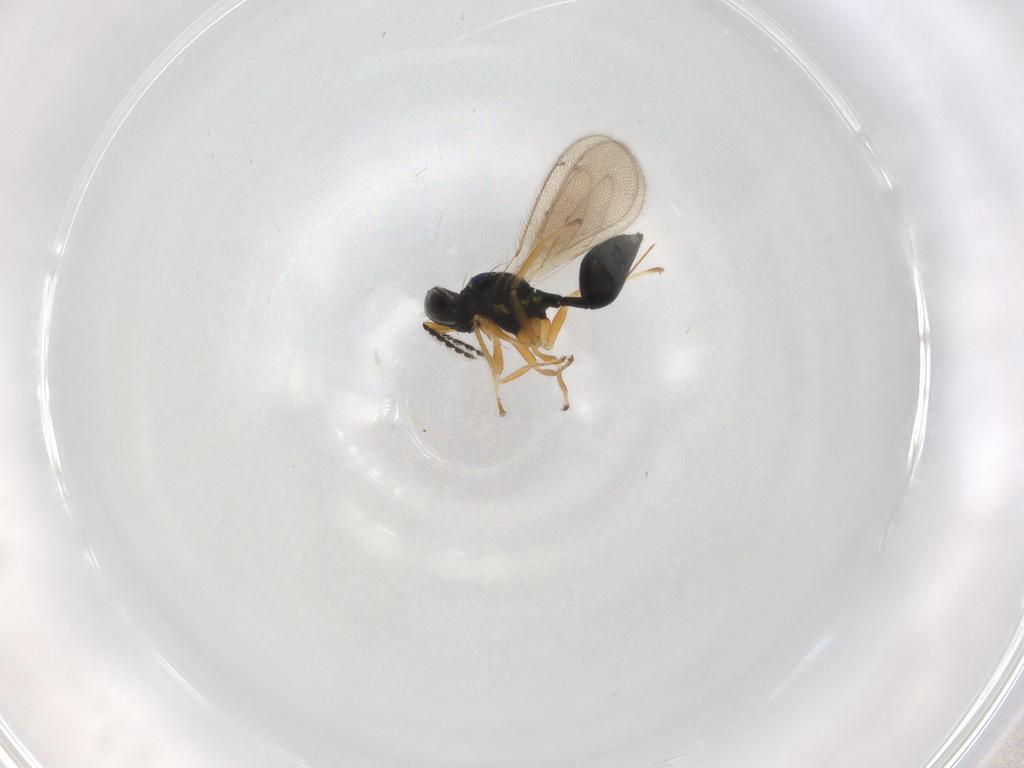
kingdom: Animalia
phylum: Arthropoda
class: Insecta
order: Hymenoptera
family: Eulophidae
